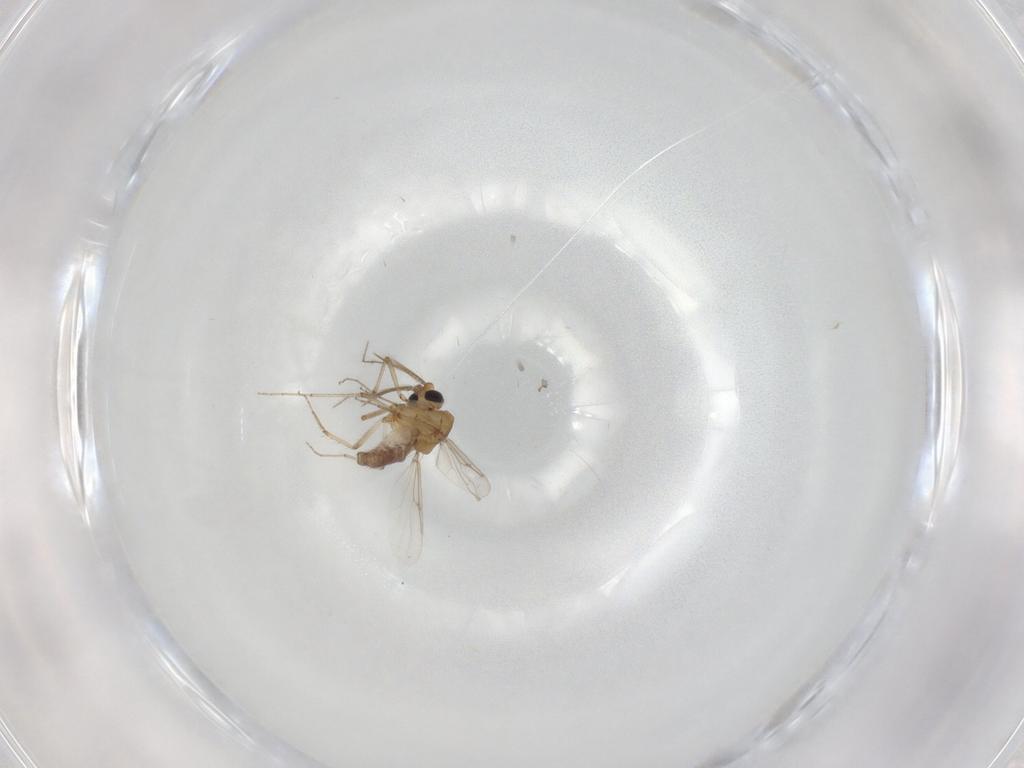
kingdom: Animalia
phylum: Arthropoda
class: Insecta
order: Diptera
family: Ceratopogonidae
